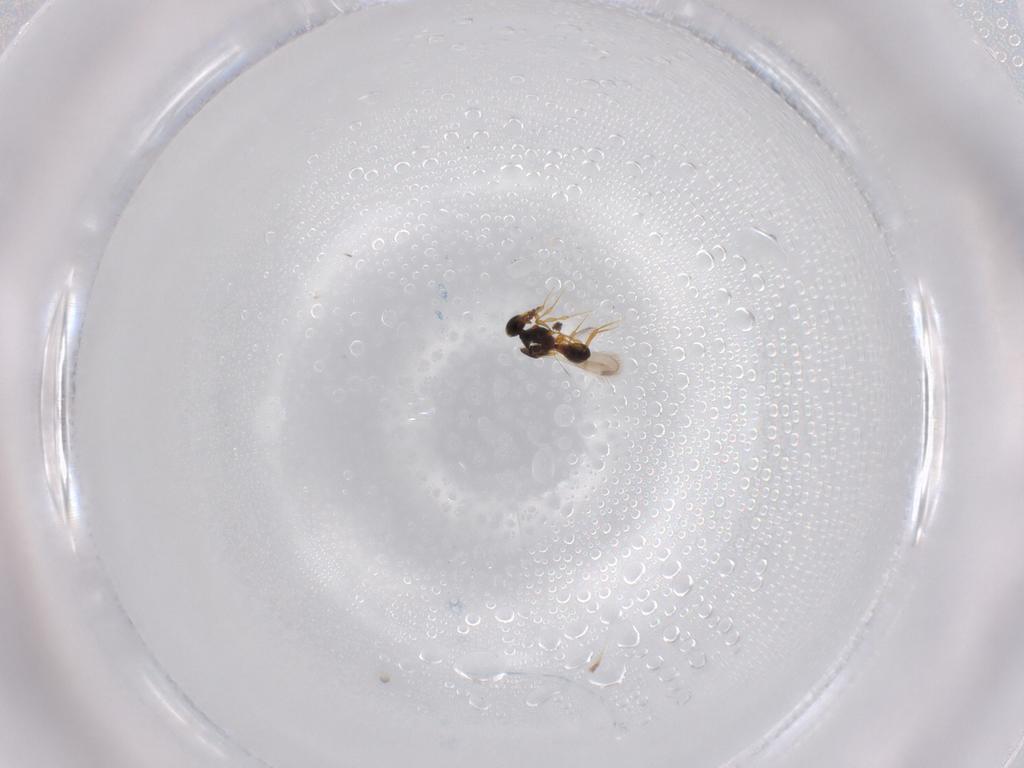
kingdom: Animalia
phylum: Arthropoda
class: Insecta
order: Hymenoptera
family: Platygastridae
